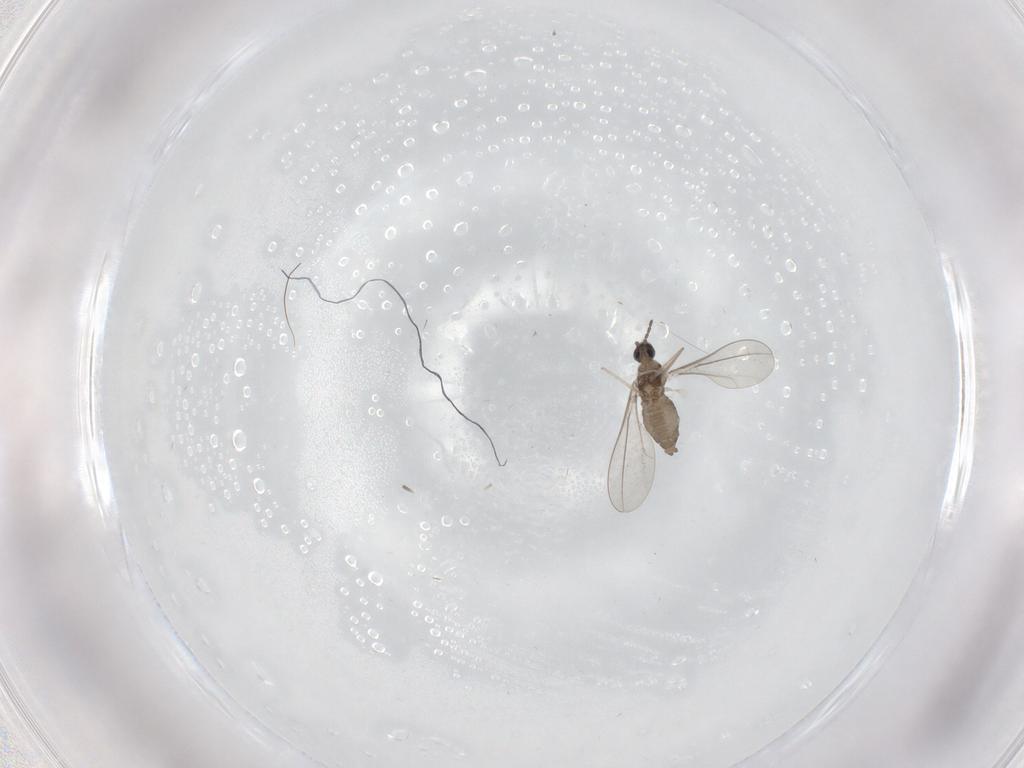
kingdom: Animalia
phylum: Arthropoda
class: Insecta
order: Diptera
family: Cecidomyiidae
